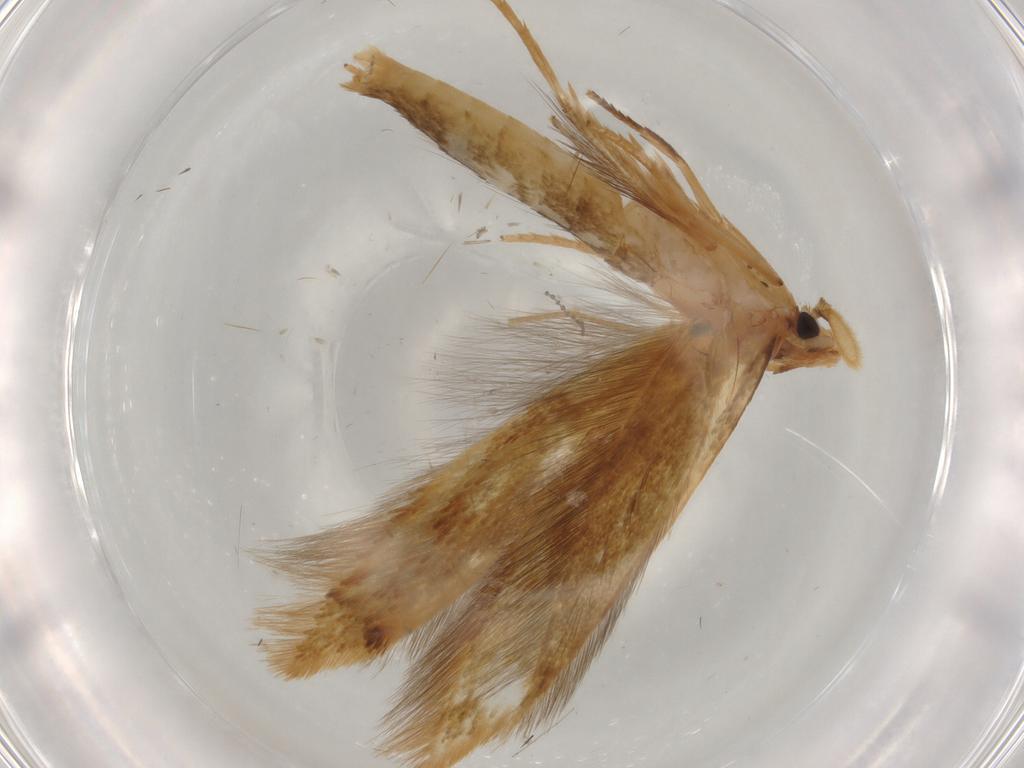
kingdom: Animalia
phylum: Arthropoda
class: Insecta
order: Lepidoptera
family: Tineidae
